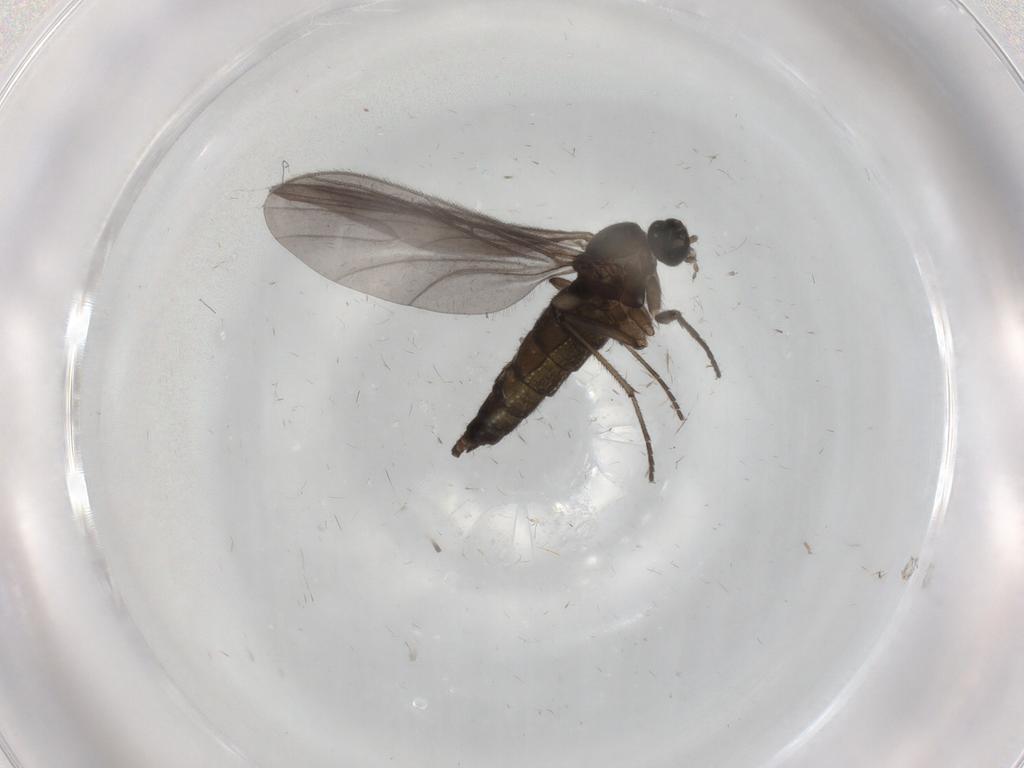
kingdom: Animalia
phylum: Arthropoda
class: Insecta
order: Diptera
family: Sciaridae
